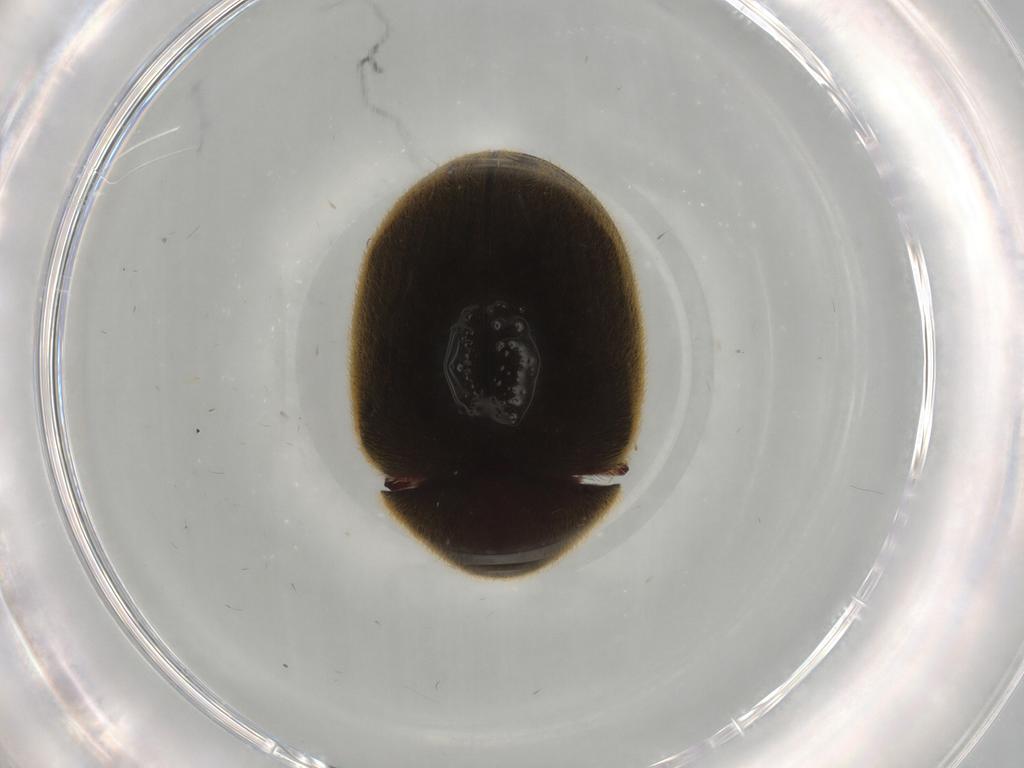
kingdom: Animalia
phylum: Arthropoda
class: Insecta
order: Coleoptera
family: Ptinidae
